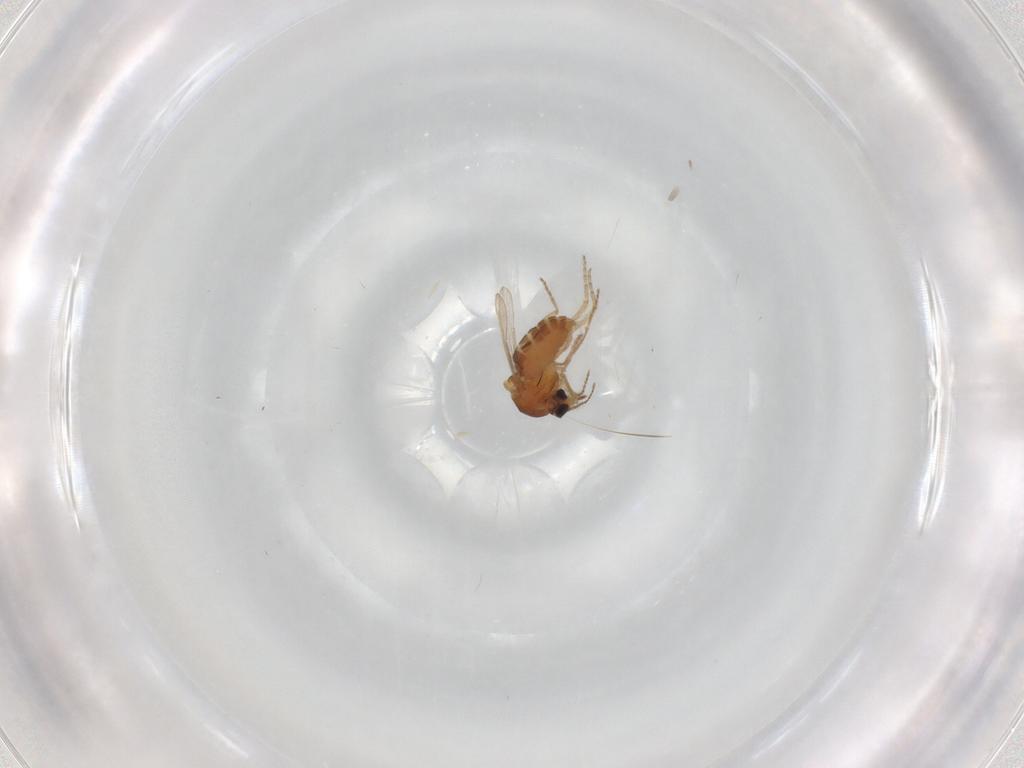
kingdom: Animalia
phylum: Arthropoda
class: Insecta
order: Diptera
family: Ceratopogonidae
